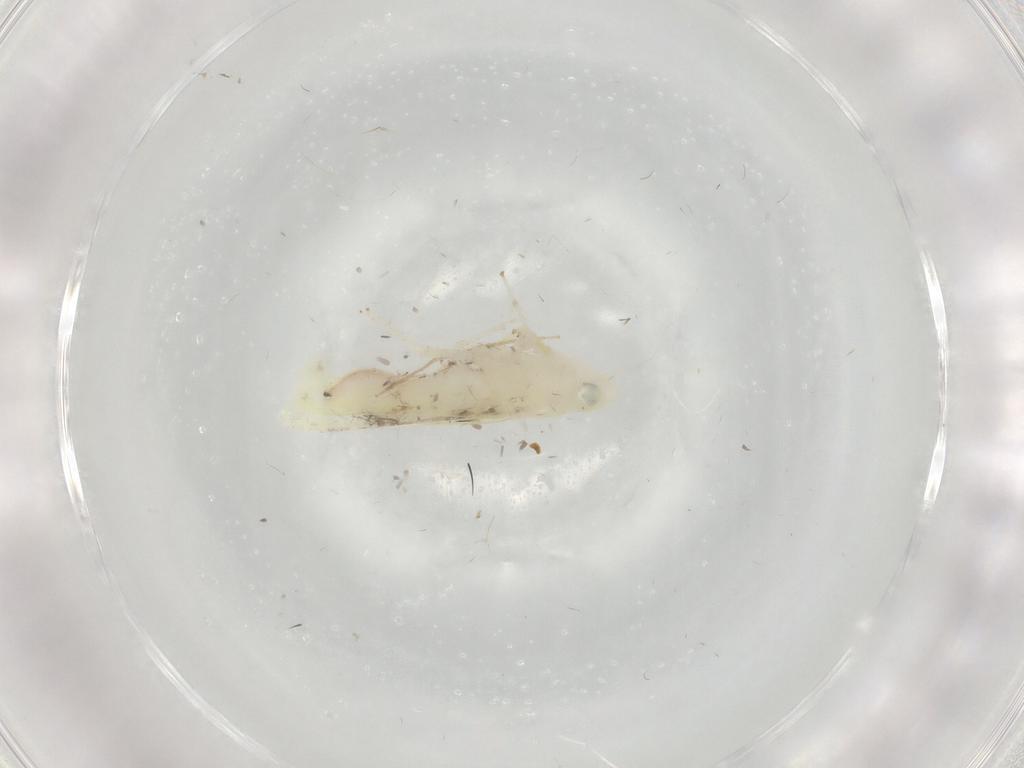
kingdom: Animalia
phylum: Arthropoda
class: Insecta
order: Hemiptera
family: Cicadellidae
